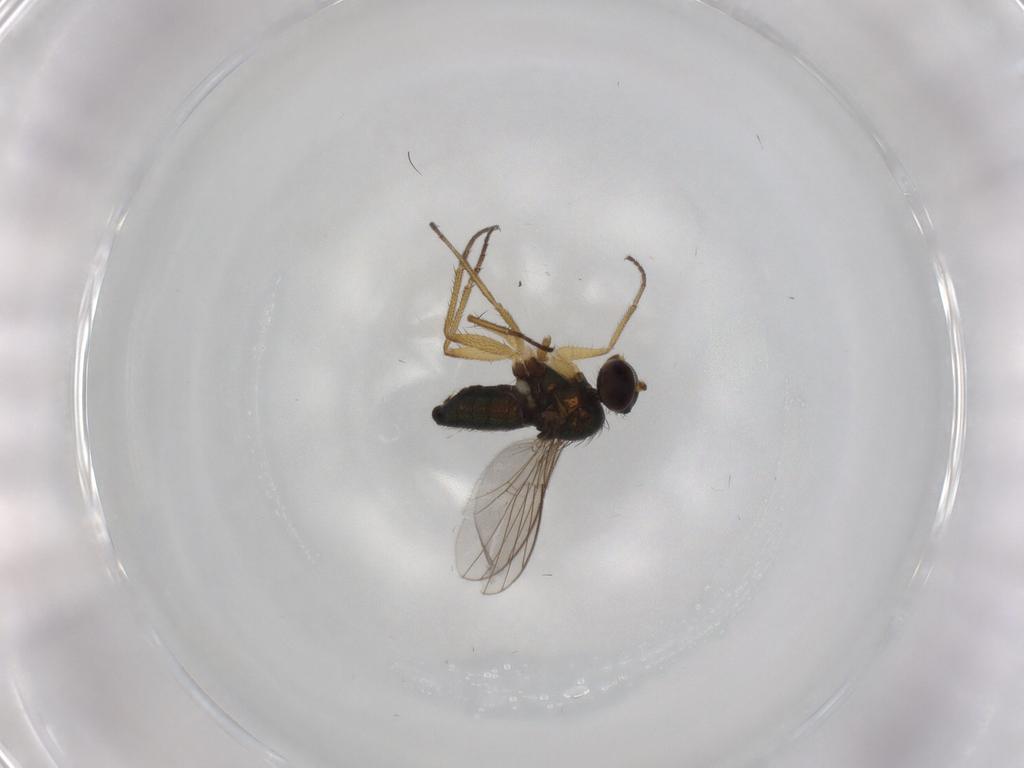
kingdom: Animalia
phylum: Arthropoda
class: Insecta
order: Diptera
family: Dolichopodidae
